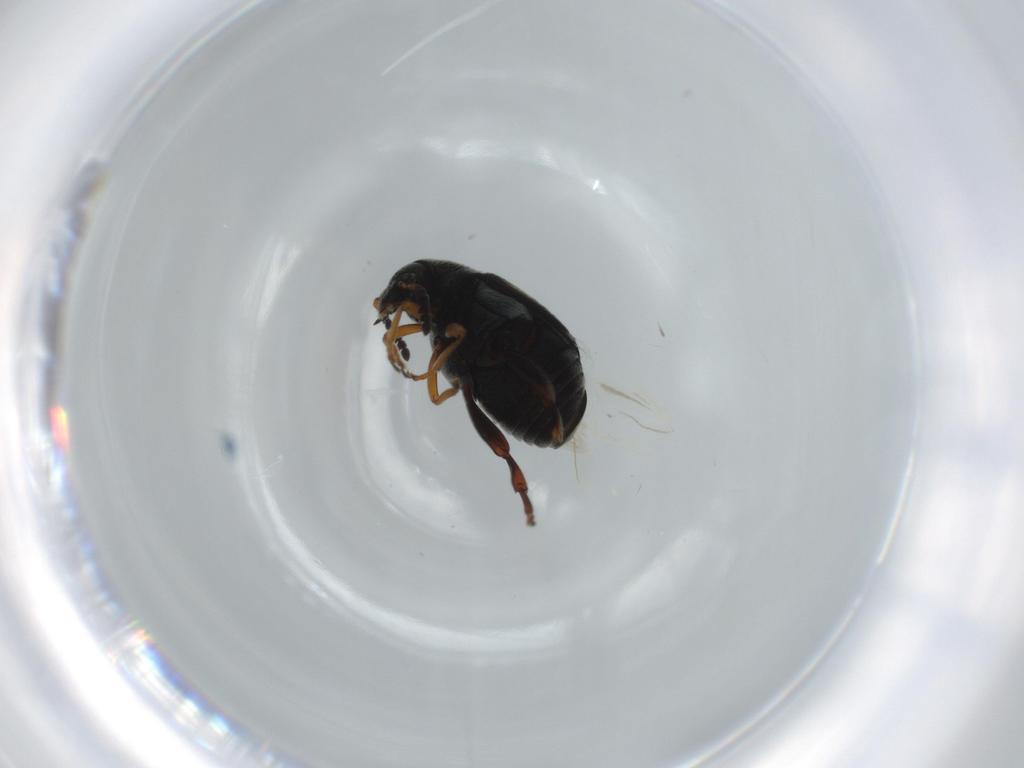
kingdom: Animalia
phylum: Arthropoda
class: Insecta
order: Coleoptera
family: Chrysomelidae
